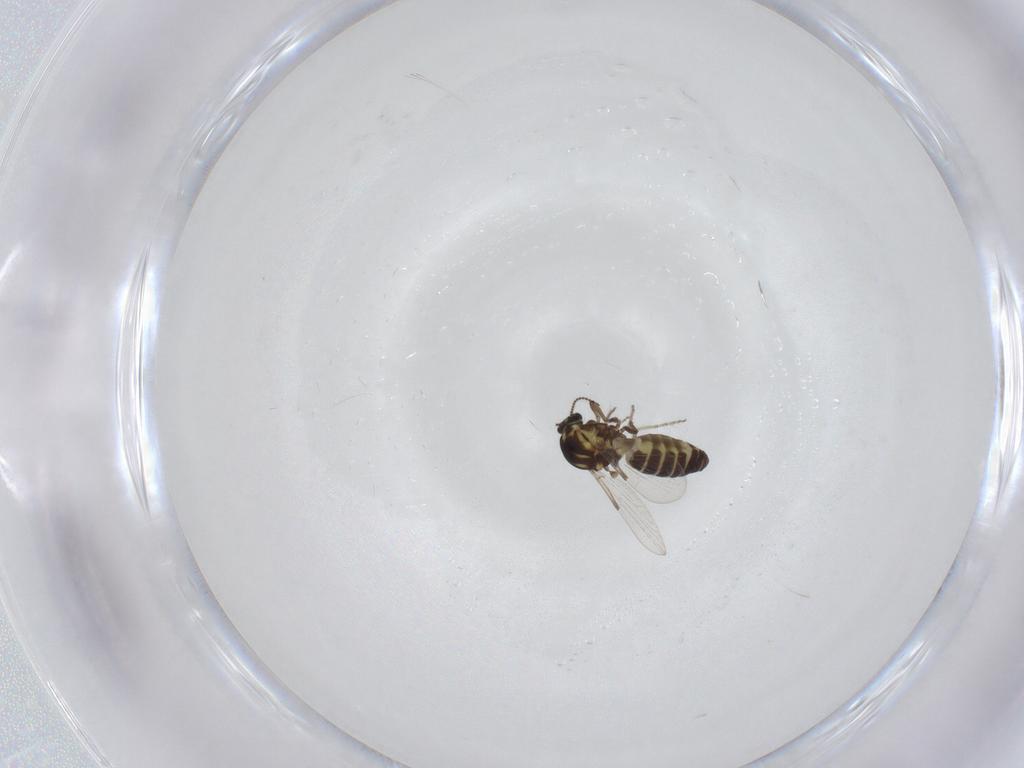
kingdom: Animalia
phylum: Arthropoda
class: Insecta
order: Diptera
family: Ceratopogonidae
